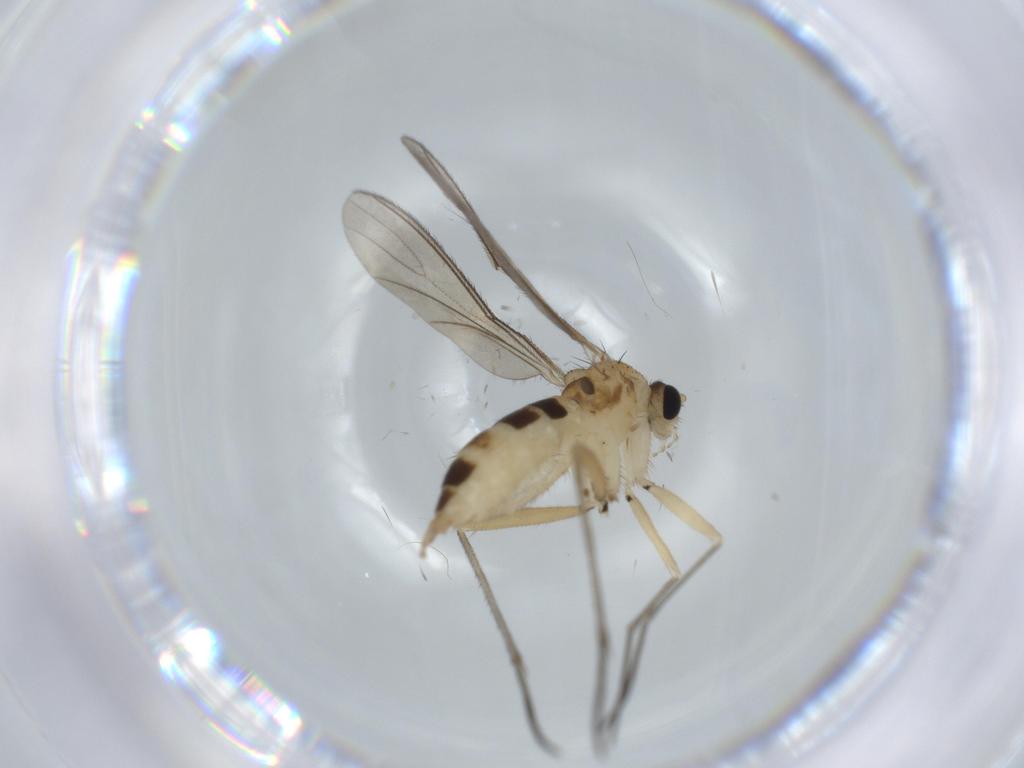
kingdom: Animalia
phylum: Arthropoda
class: Insecta
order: Diptera
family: Sciaridae
